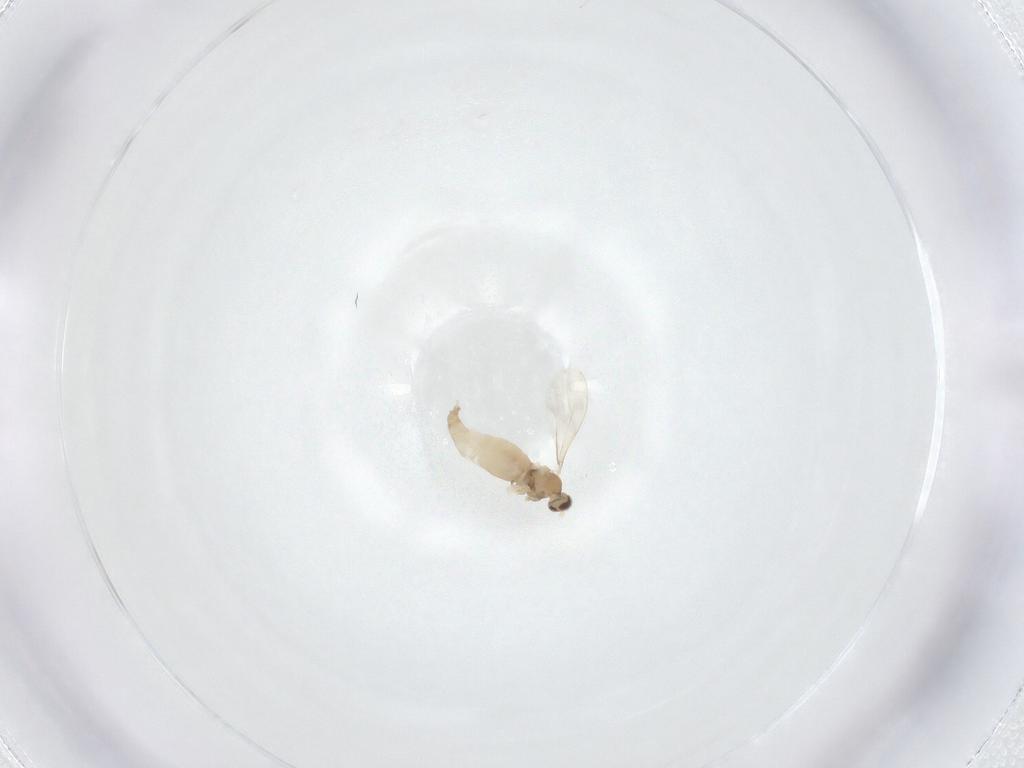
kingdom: Animalia
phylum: Arthropoda
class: Insecta
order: Diptera
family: Cecidomyiidae
